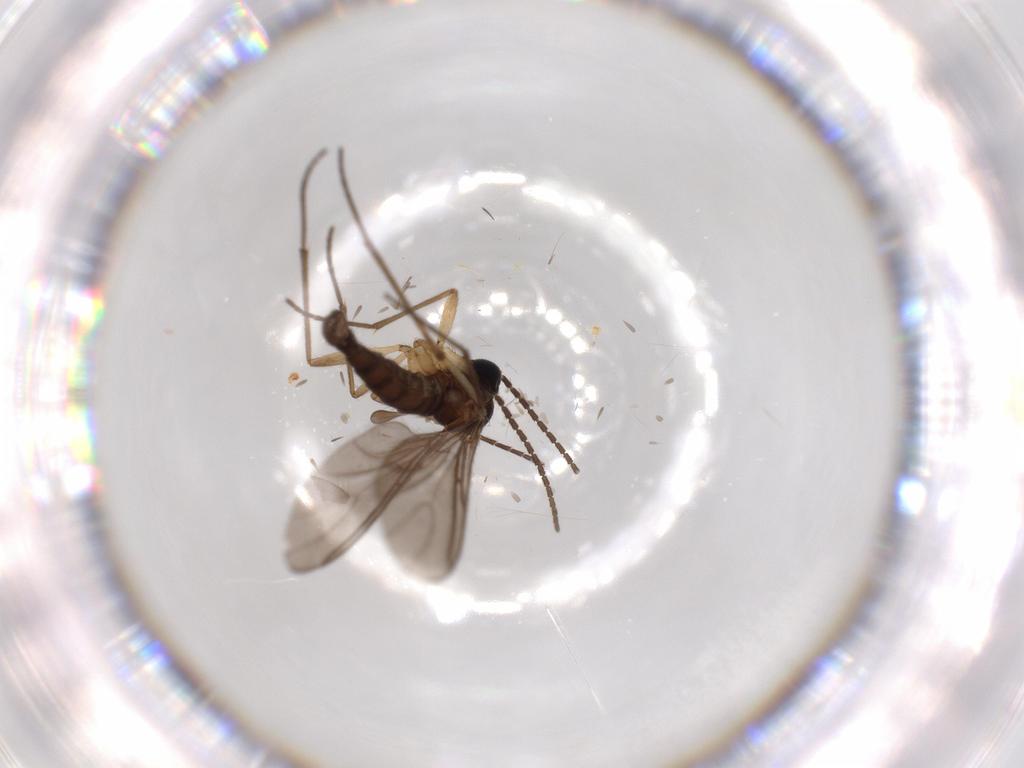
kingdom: Animalia
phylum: Arthropoda
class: Insecta
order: Diptera
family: Sciaridae
